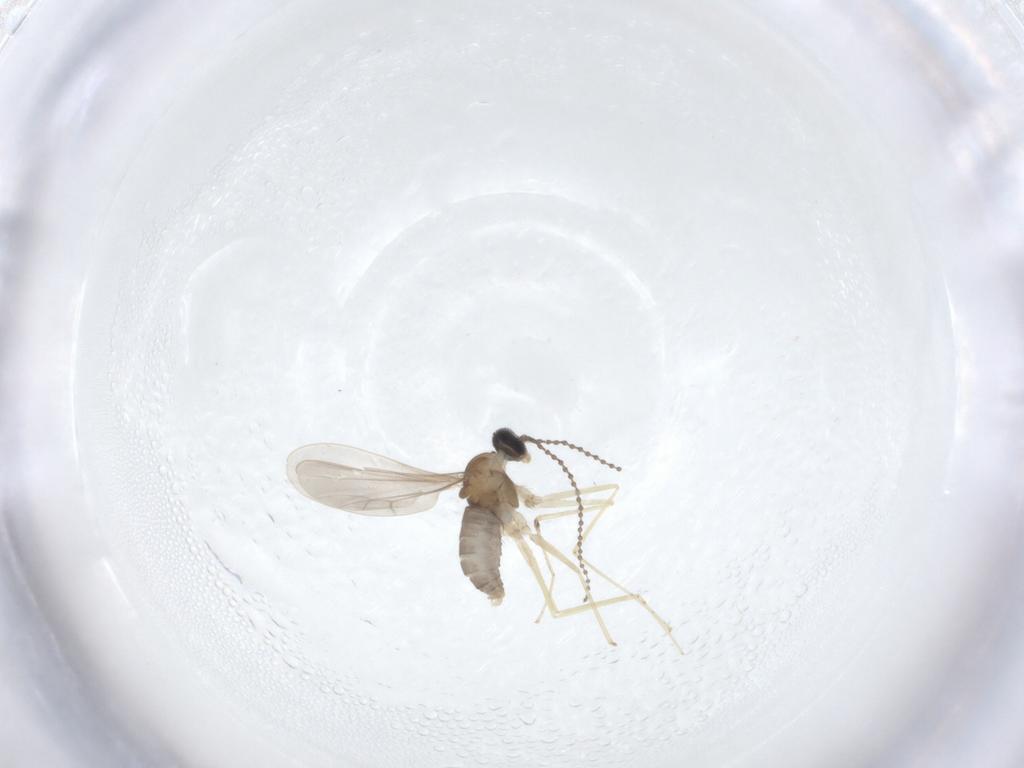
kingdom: Animalia
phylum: Arthropoda
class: Insecta
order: Diptera
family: Cecidomyiidae
